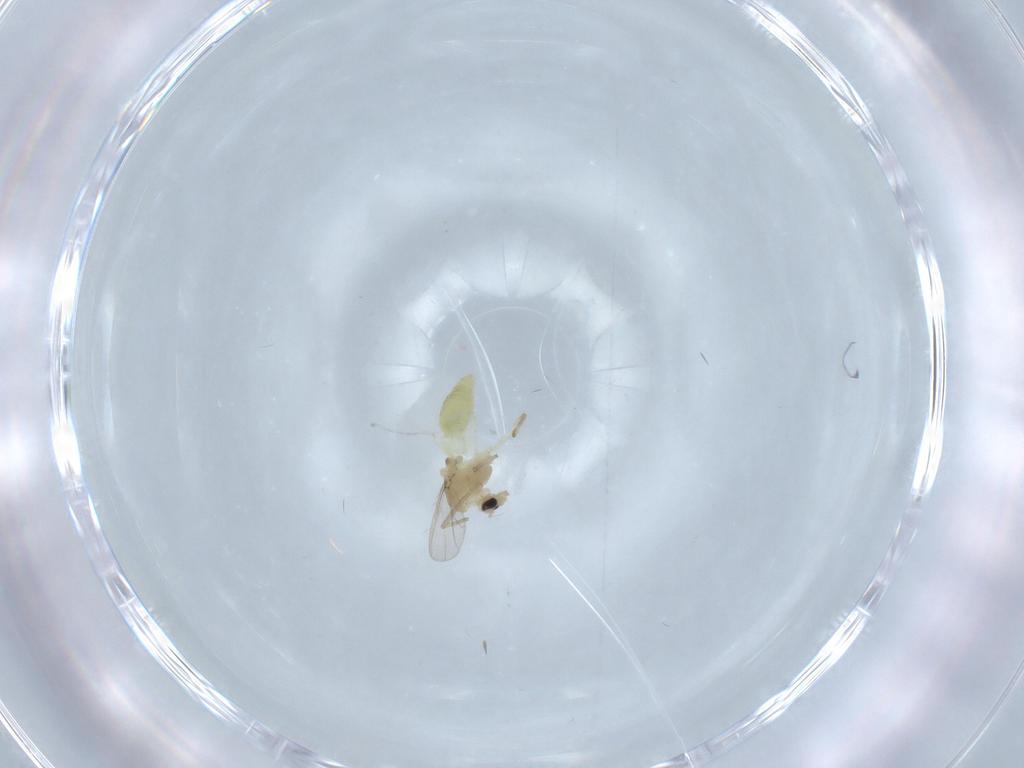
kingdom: Animalia
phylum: Arthropoda
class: Insecta
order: Diptera
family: Chironomidae
